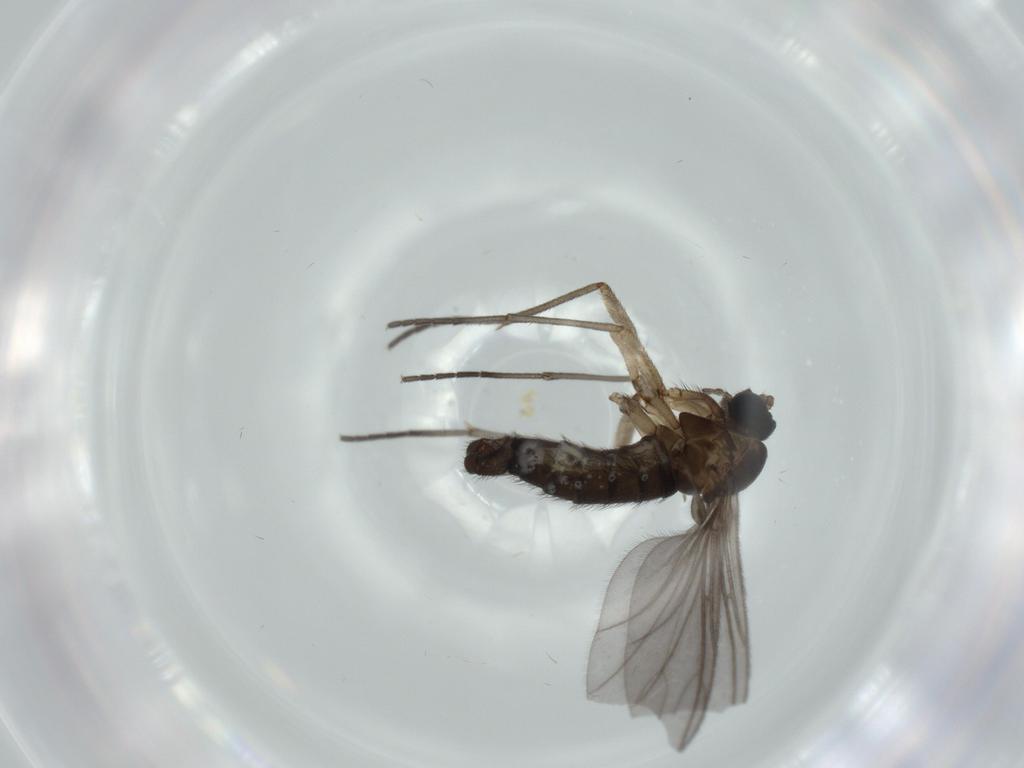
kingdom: Animalia
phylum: Arthropoda
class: Insecta
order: Diptera
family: Sciaridae
